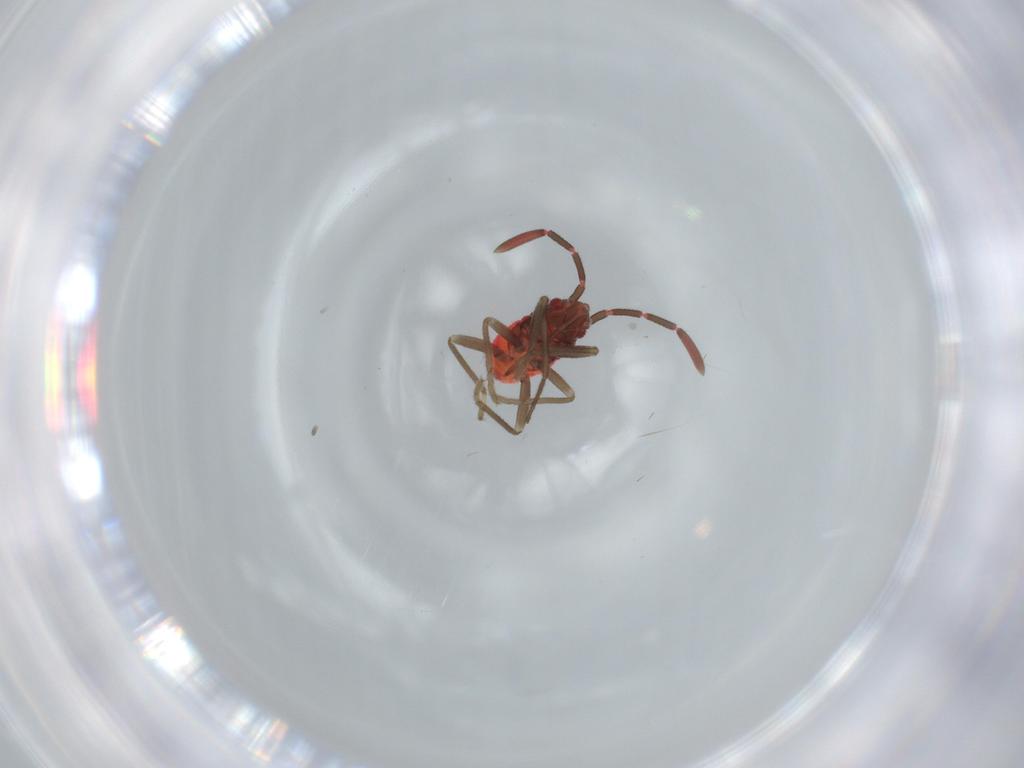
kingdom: Animalia
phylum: Arthropoda
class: Insecta
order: Hemiptera
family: Rhyparochromidae
